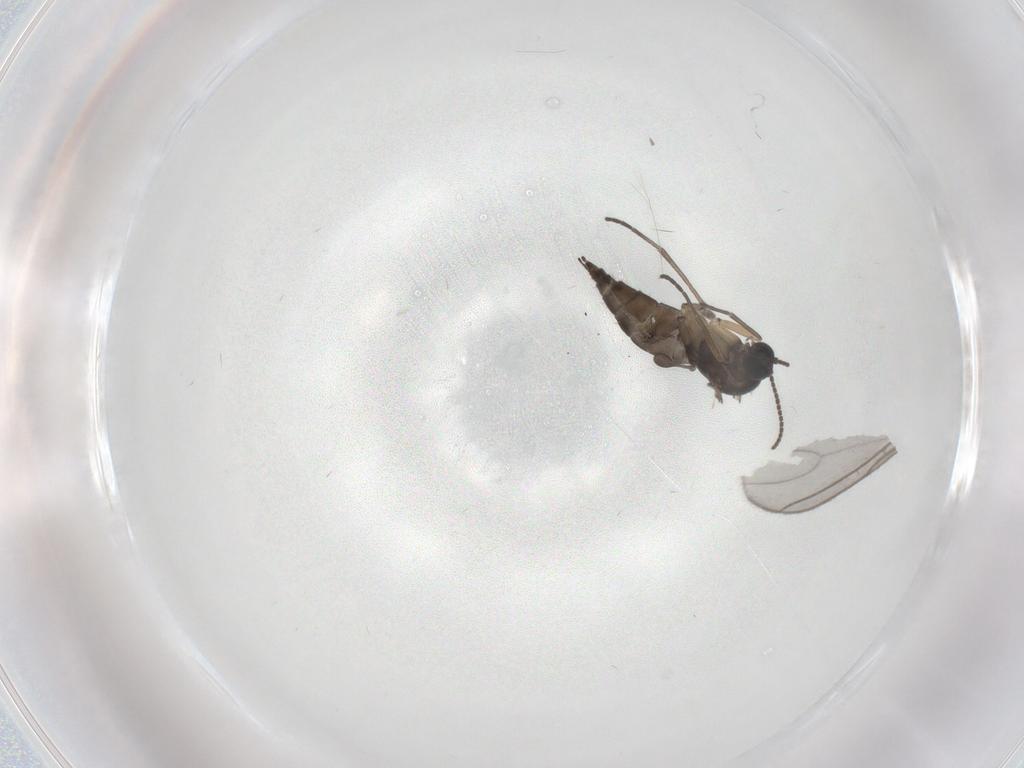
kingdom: Animalia
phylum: Arthropoda
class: Insecta
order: Diptera
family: Sciaridae
